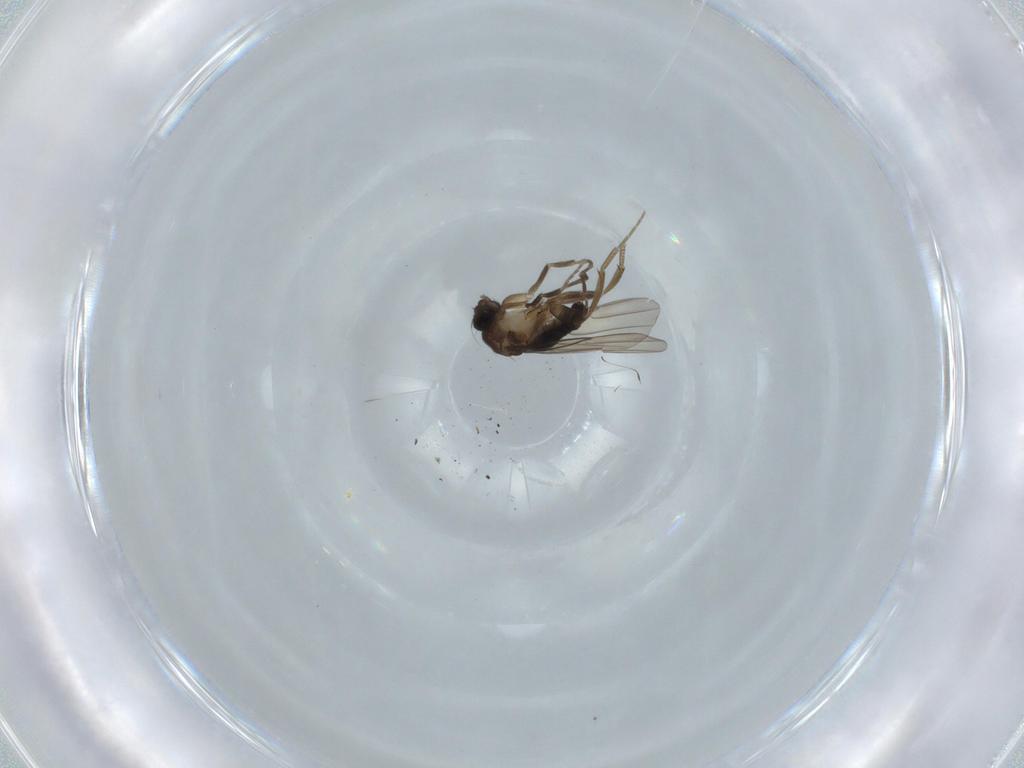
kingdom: Animalia
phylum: Arthropoda
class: Insecta
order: Diptera
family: Phoridae
